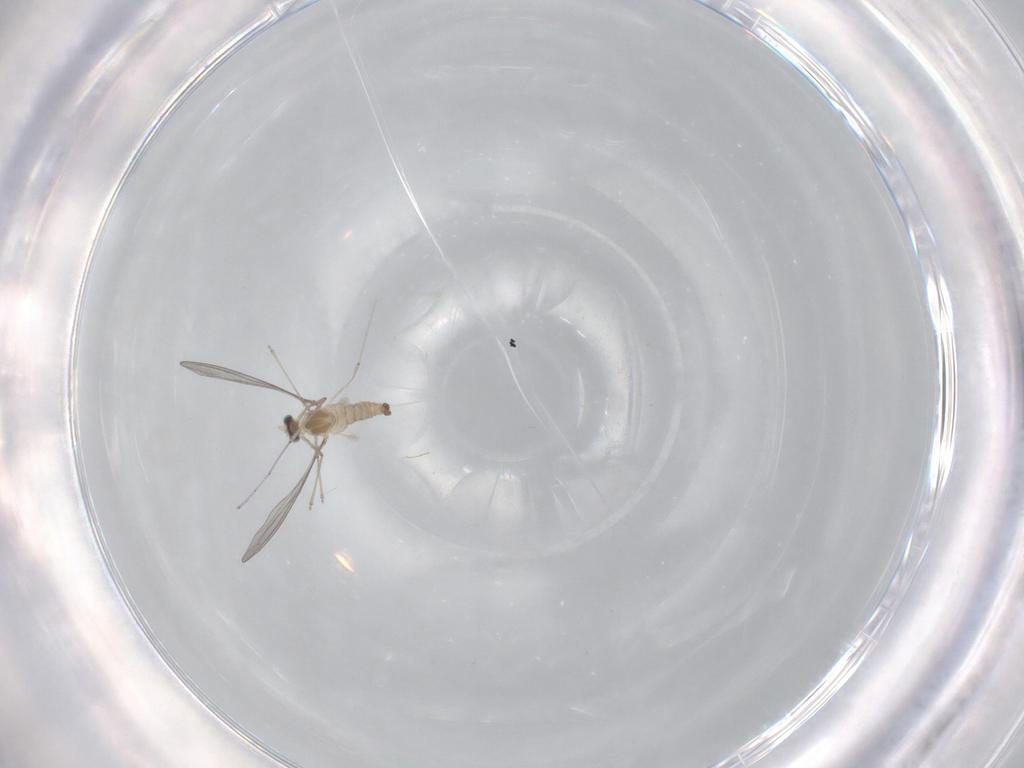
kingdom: Animalia
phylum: Arthropoda
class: Insecta
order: Diptera
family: Cecidomyiidae
